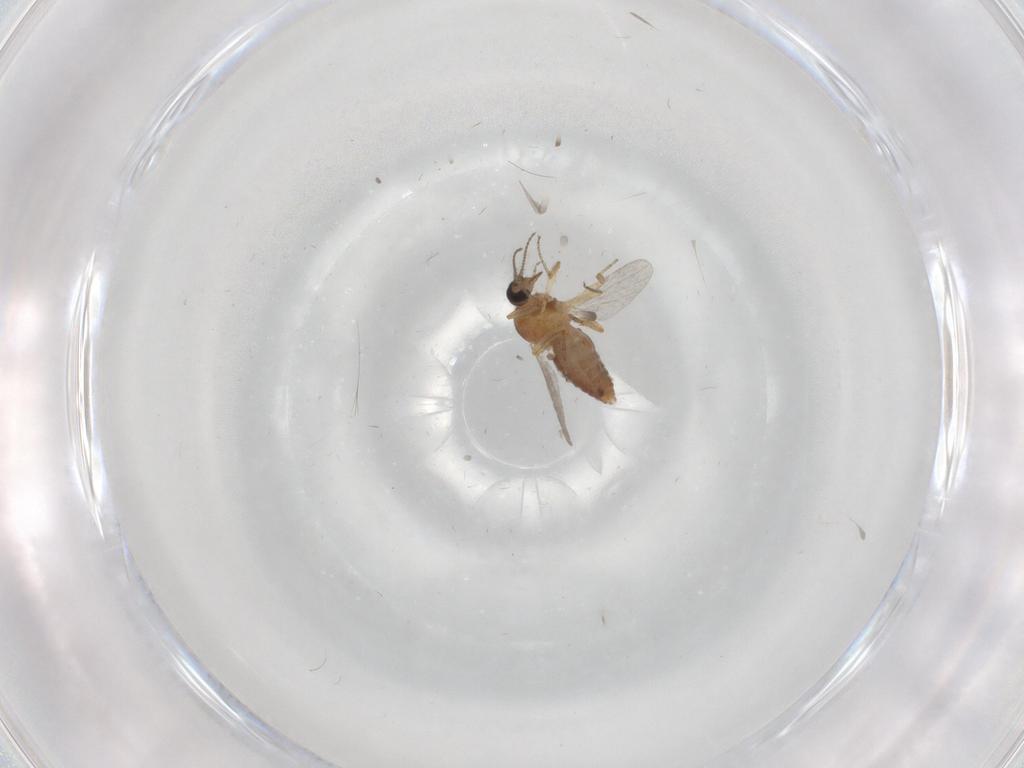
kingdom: Animalia
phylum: Arthropoda
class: Insecta
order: Diptera
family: Ceratopogonidae
